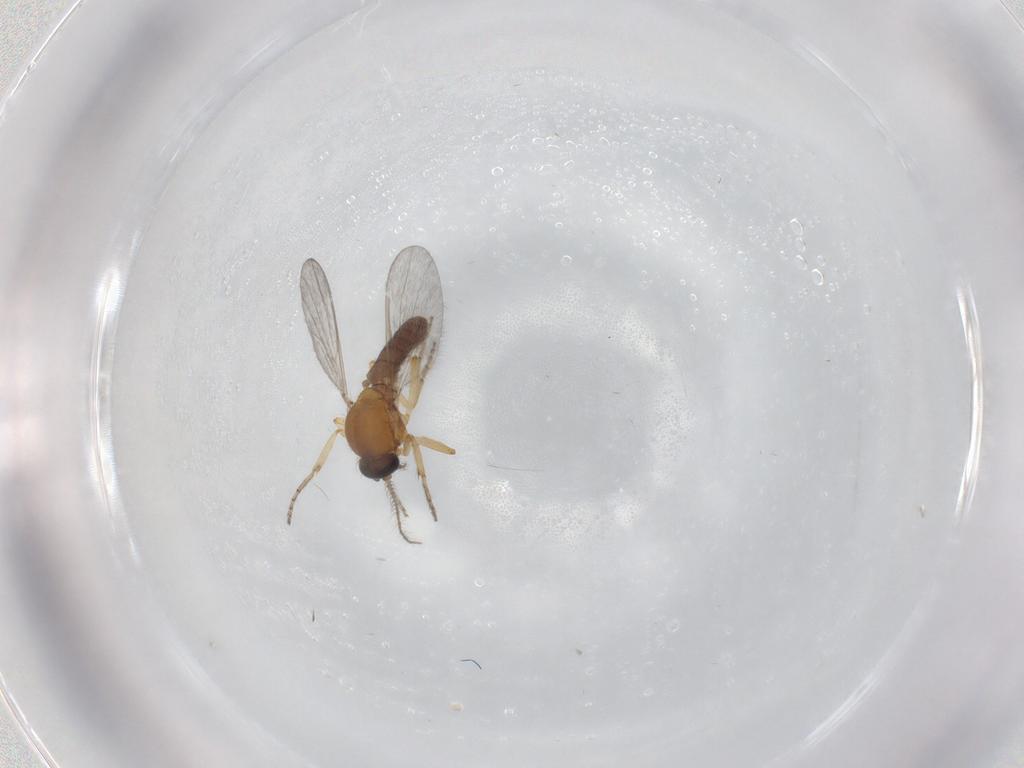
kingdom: Animalia
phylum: Arthropoda
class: Insecta
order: Diptera
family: Ceratopogonidae
